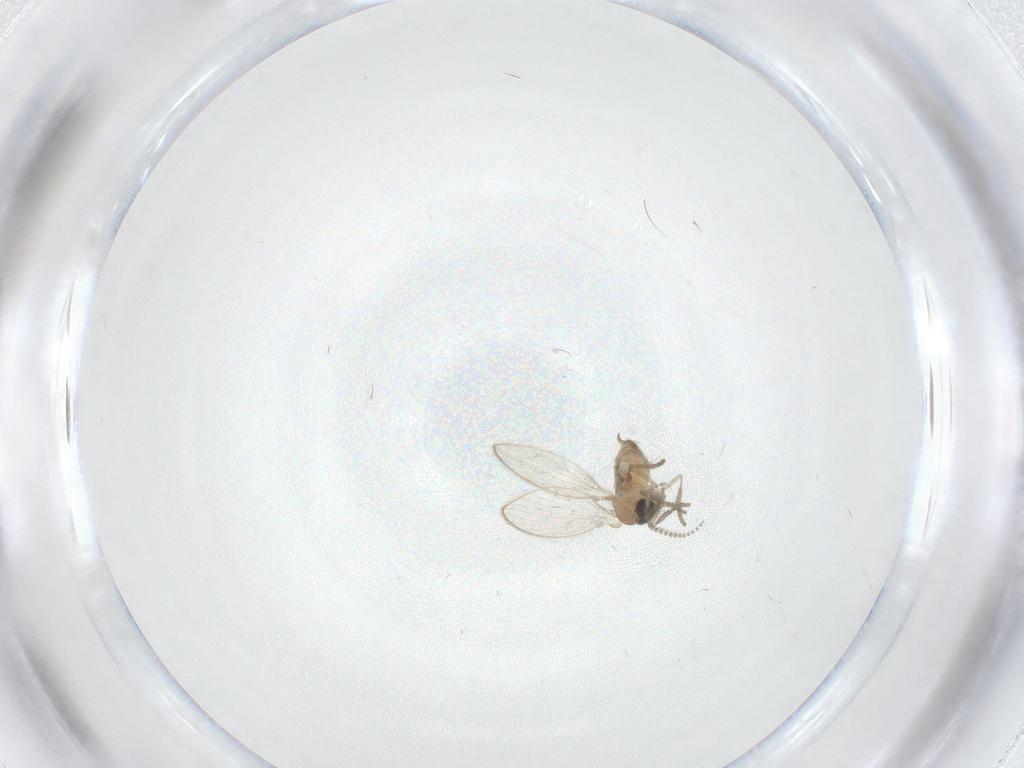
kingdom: Animalia
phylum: Arthropoda
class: Insecta
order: Diptera
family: Psychodidae
